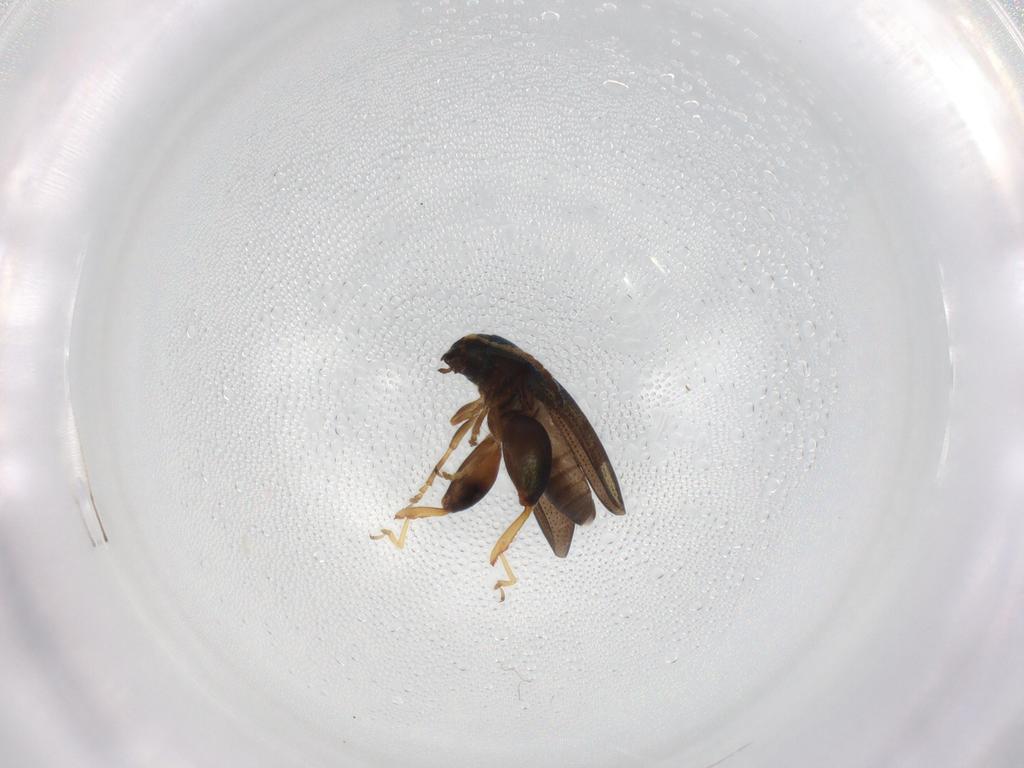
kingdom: Animalia
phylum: Arthropoda
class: Insecta
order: Coleoptera
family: Chrysomelidae
